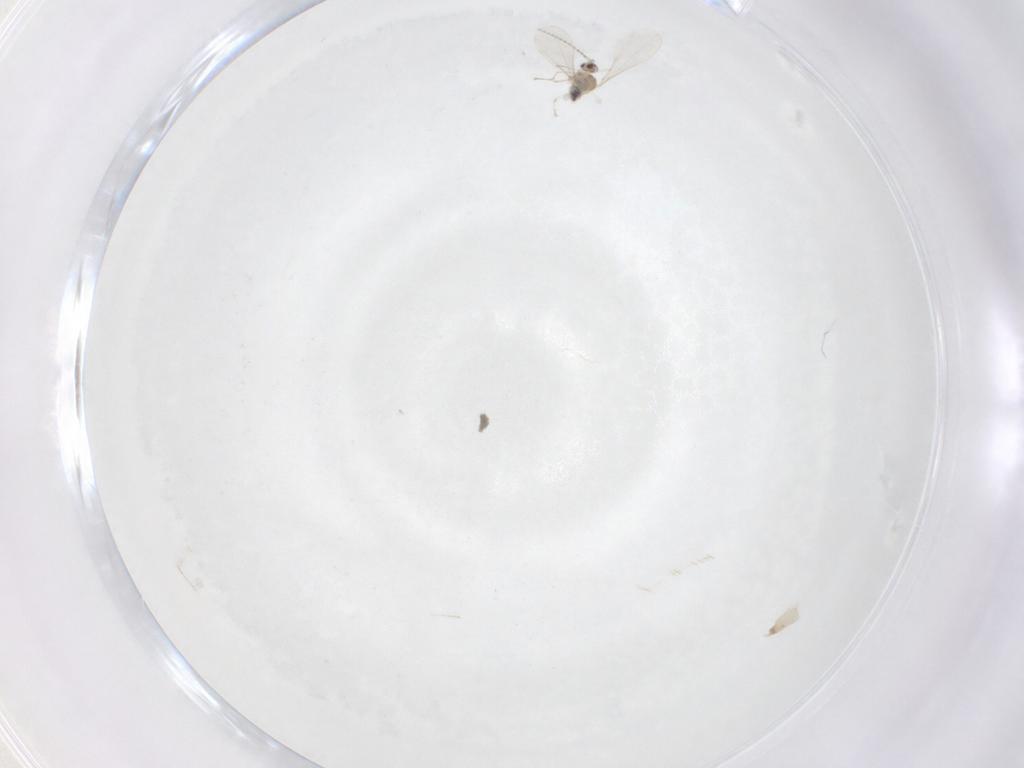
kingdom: Animalia
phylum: Arthropoda
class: Insecta
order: Diptera
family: Cecidomyiidae
